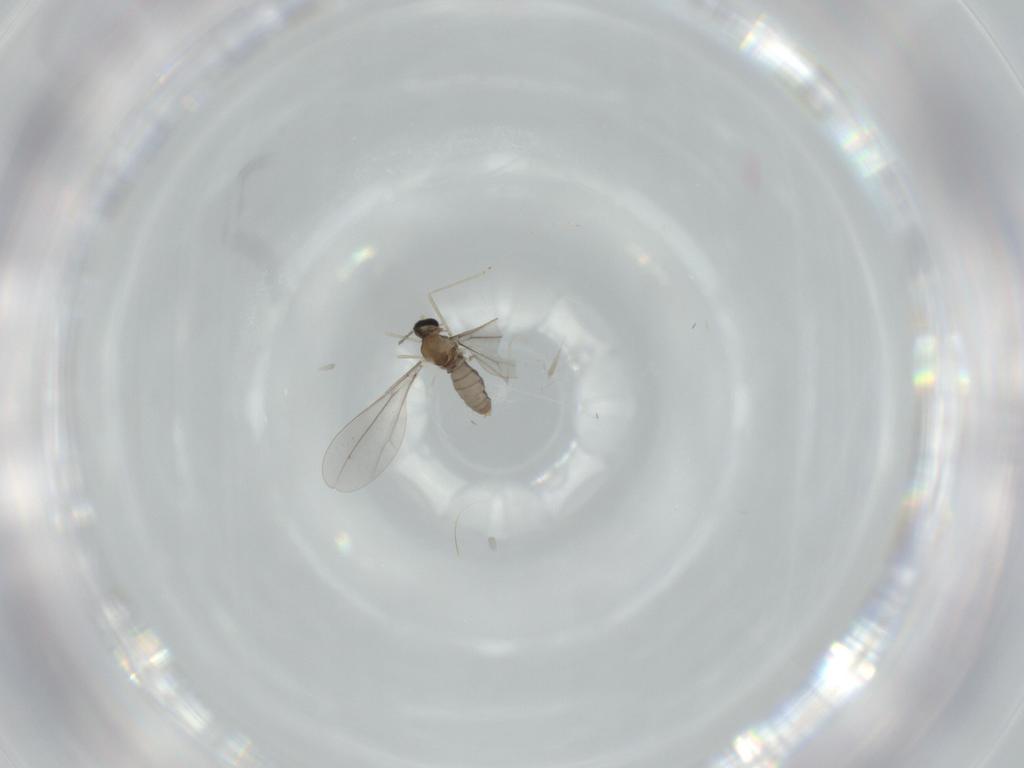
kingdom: Animalia
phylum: Arthropoda
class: Insecta
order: Diptera
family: Cecidomyiidae
